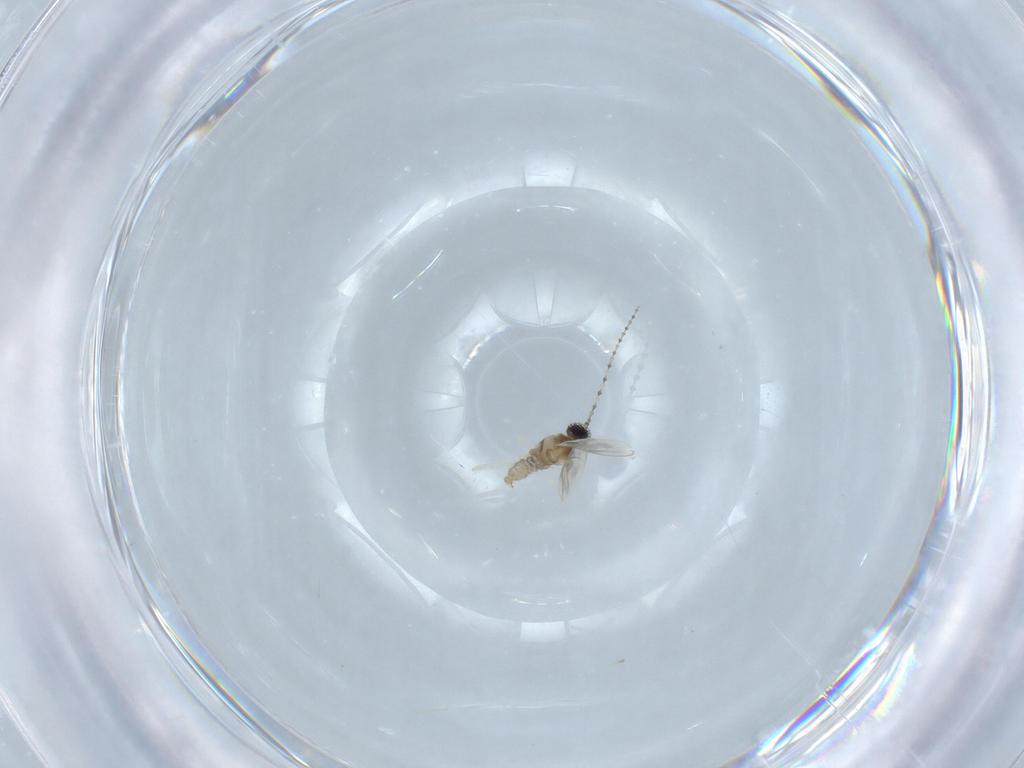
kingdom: Animalia
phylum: Arthropoda
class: Insecta
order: Diptera
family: Cecidomyiidae
